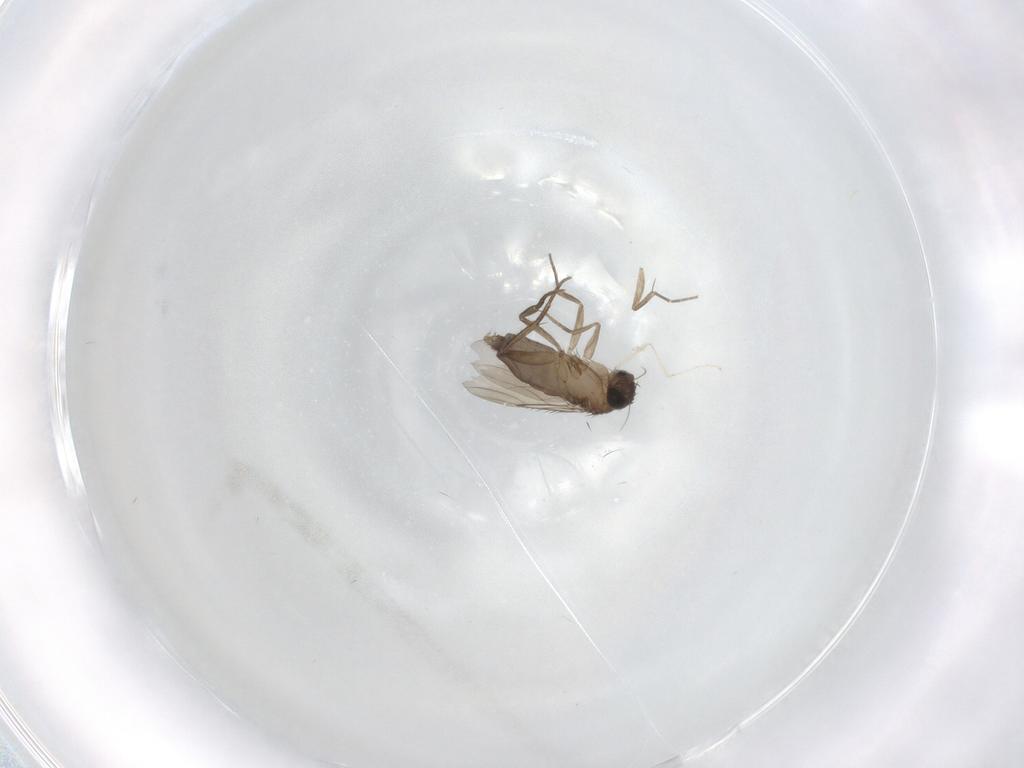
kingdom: Animalia
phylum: Arthropoda
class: Insecta
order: Diptera
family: Phoridae
